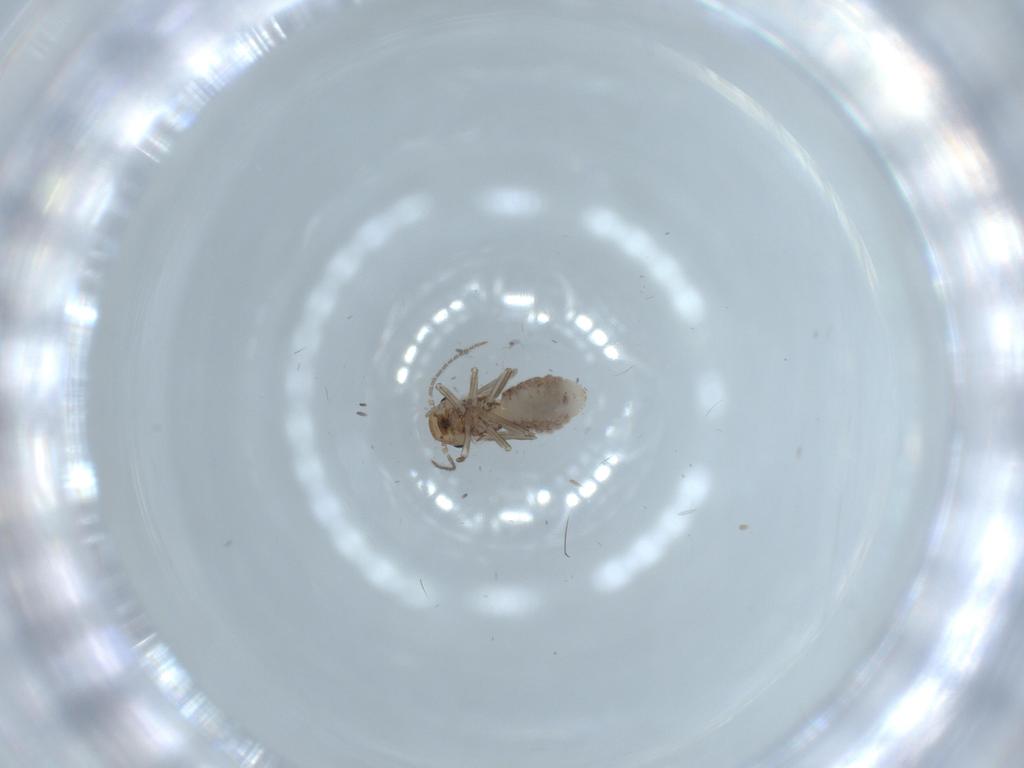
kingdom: Animalia
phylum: Arthropoda
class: Insecta
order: Psocodea
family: Lachesillidae
